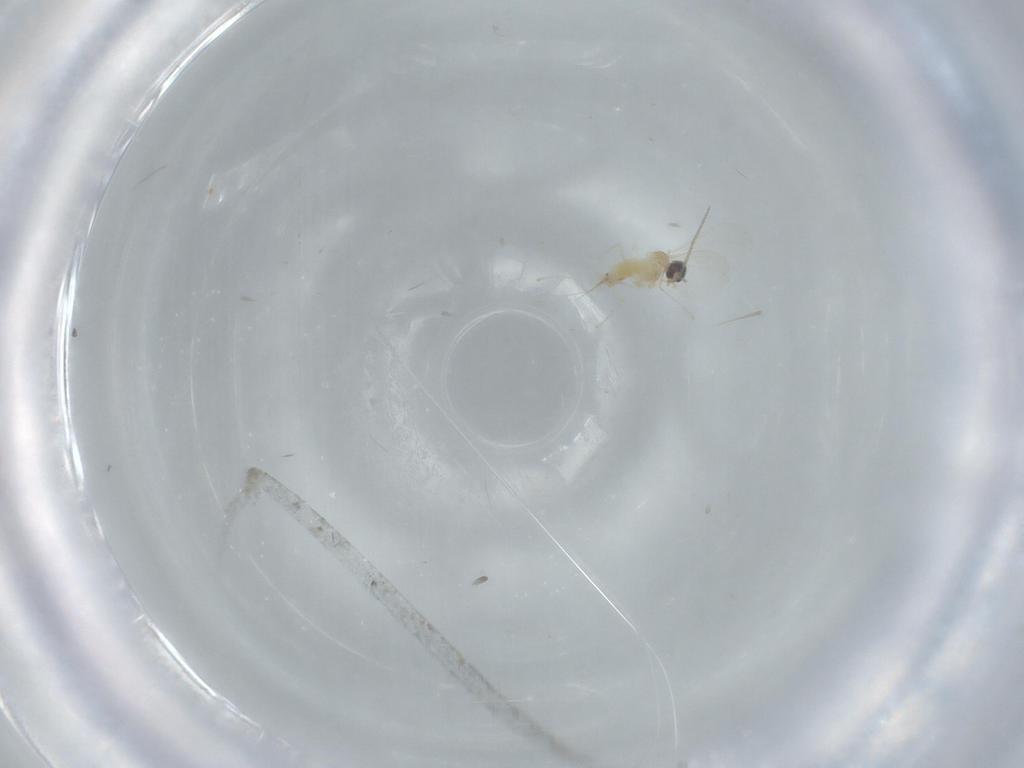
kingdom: Animalia
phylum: Arthropoda
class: Insecta
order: Diptera
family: Cecidomyiidae
